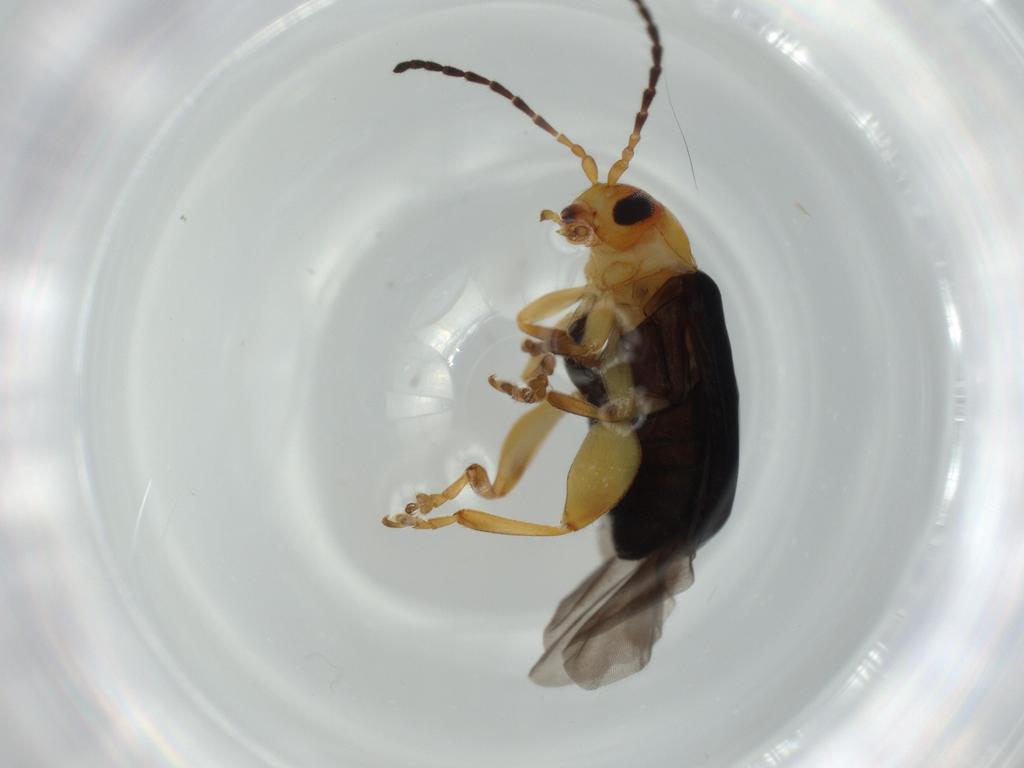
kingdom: Animalia
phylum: Arthropoda
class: Insecta
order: Coleoptera
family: Chrysomelidae
